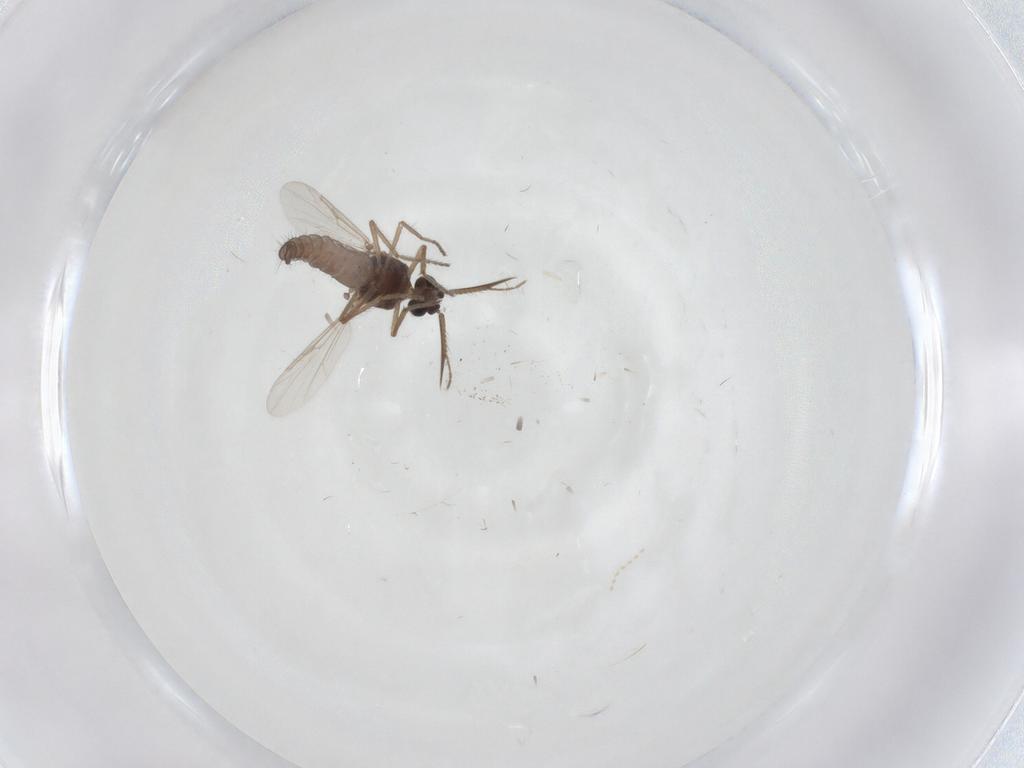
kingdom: Animalia
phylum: Arthropoda
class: Insecta
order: Diptera
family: Ceratopogonidae
